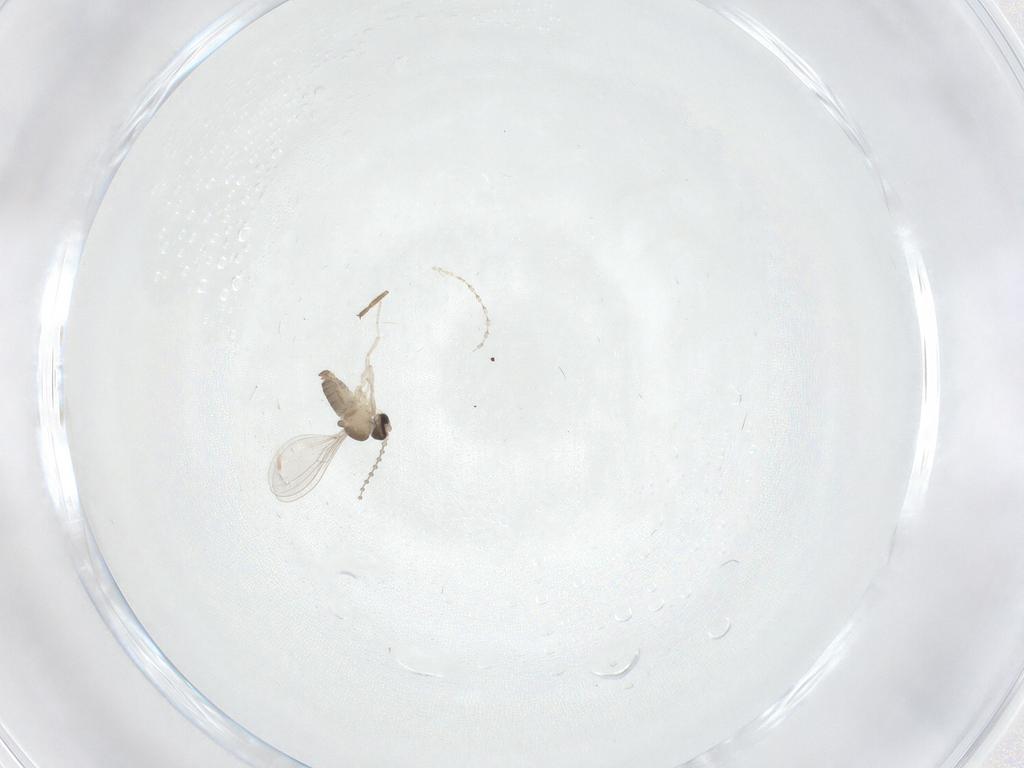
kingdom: Animalia
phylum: Arthropoda
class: Insecta
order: Diptera
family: Cecidomyiidae
